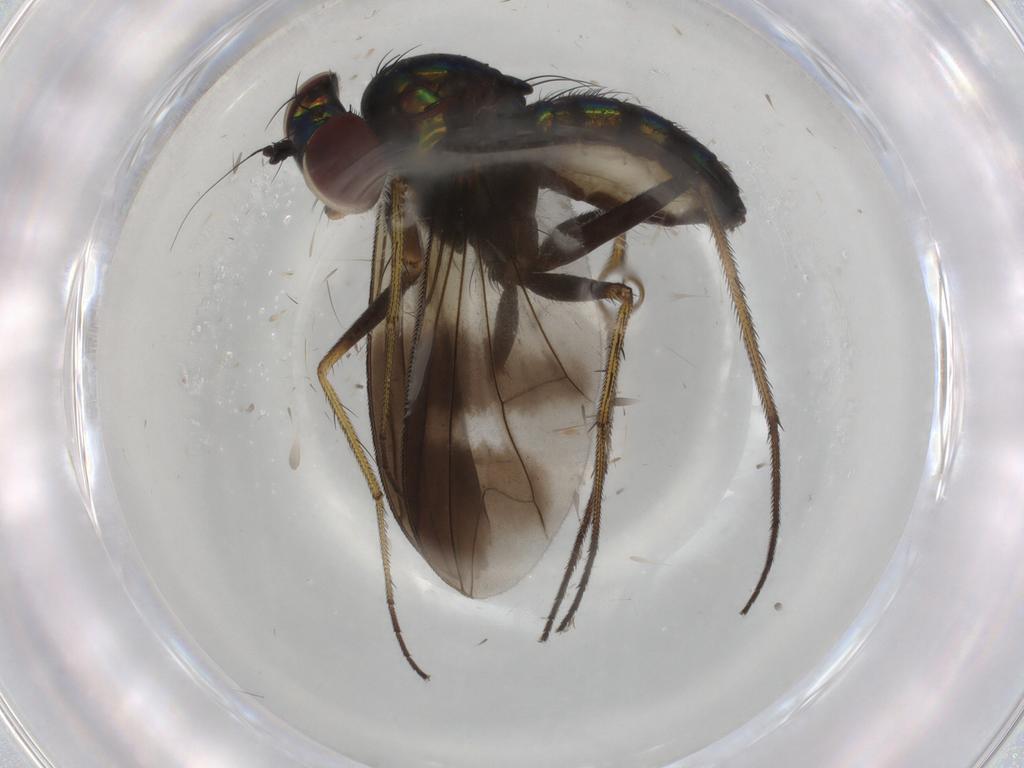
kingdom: Animalia
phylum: Arthropoda
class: Insecta
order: Diptera
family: Dolichopodidae
